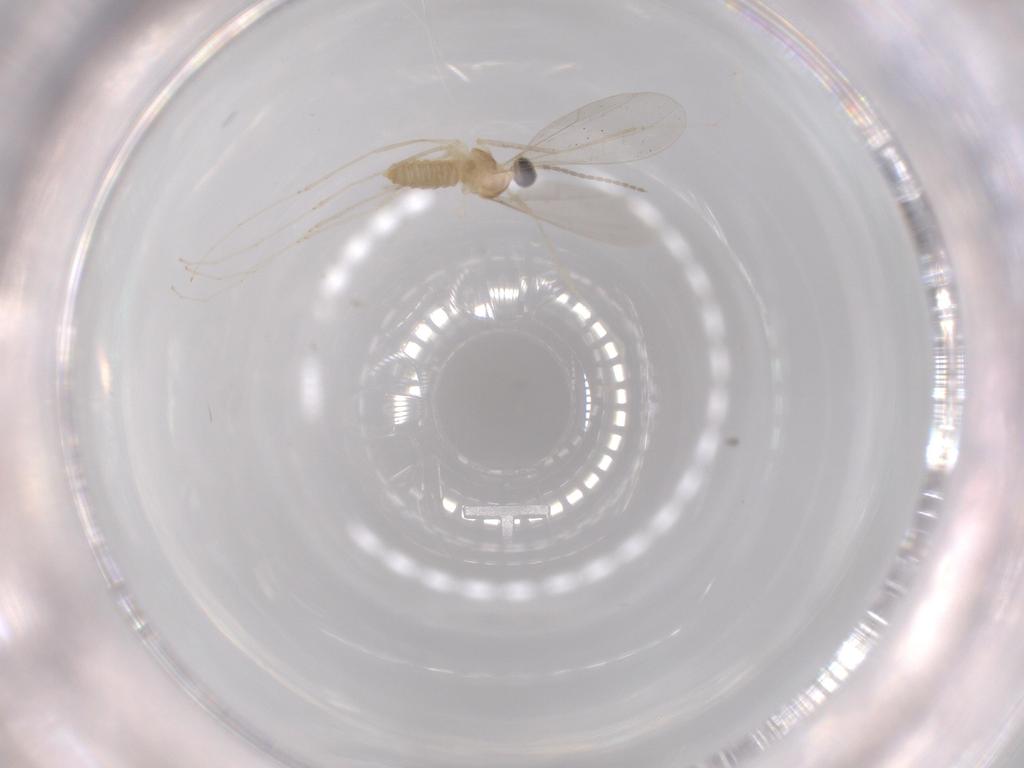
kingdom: Animalia
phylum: Arthropoda
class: Insecta
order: Diptera
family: Cecidomyiidae
